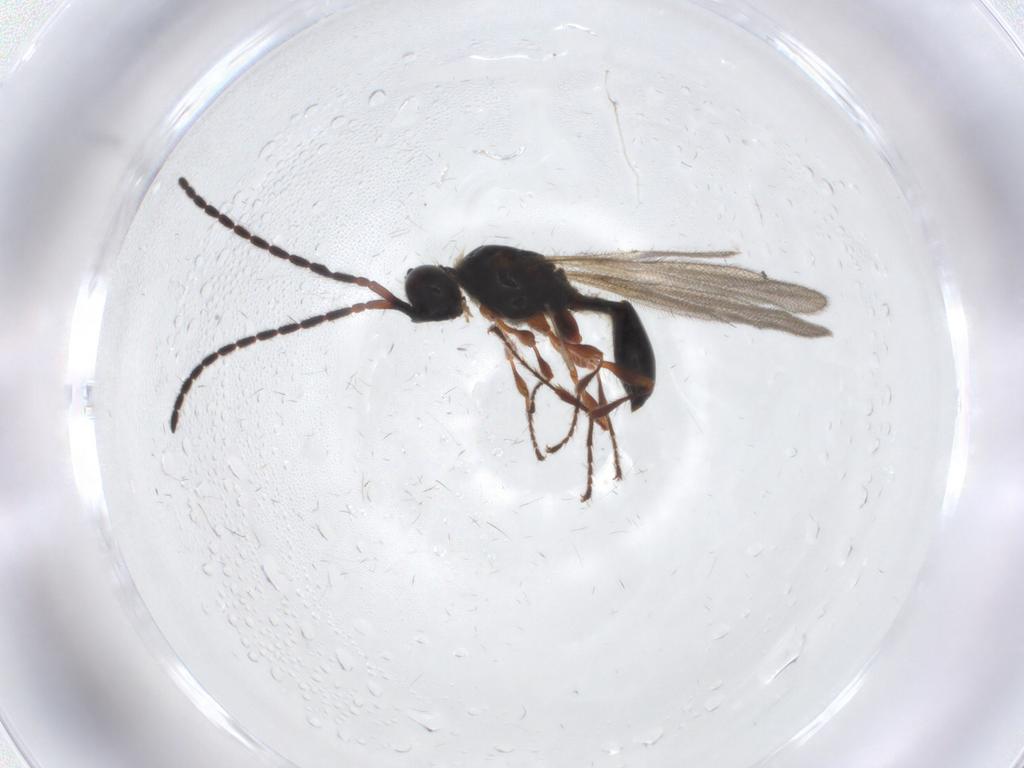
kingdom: Animalia
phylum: Arthropoda
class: Insecta
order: Hymenoptera
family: Diapriidae
